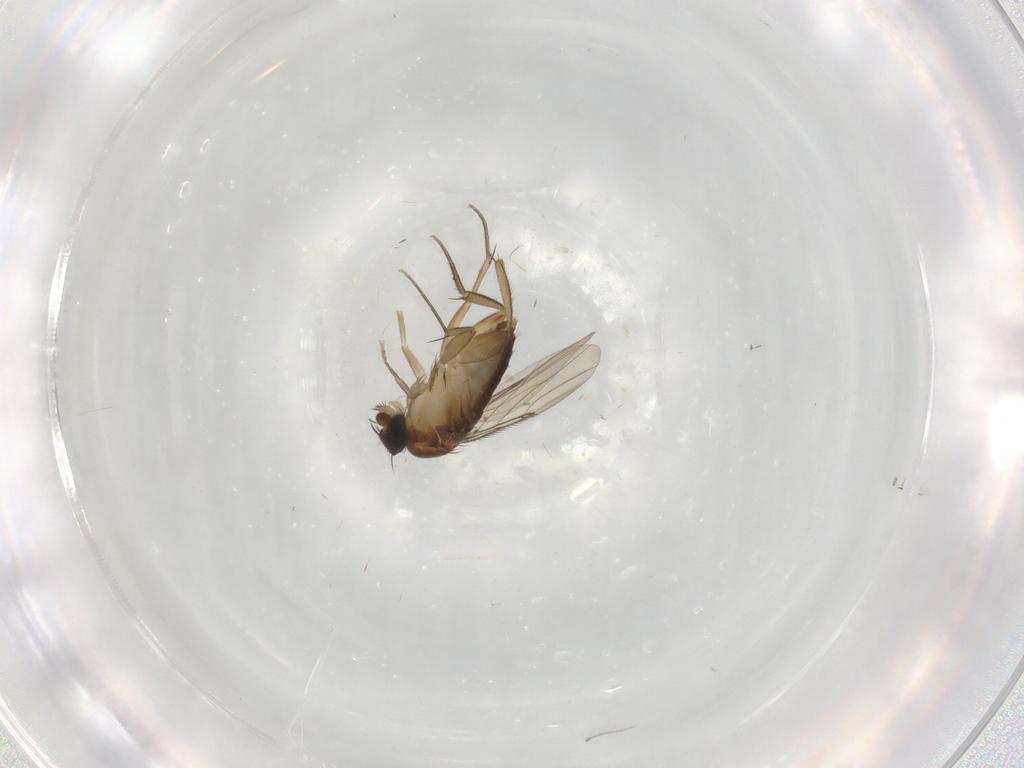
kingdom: Animalia
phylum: Arthropoda
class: Insecta
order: Diptera
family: Phoridae
